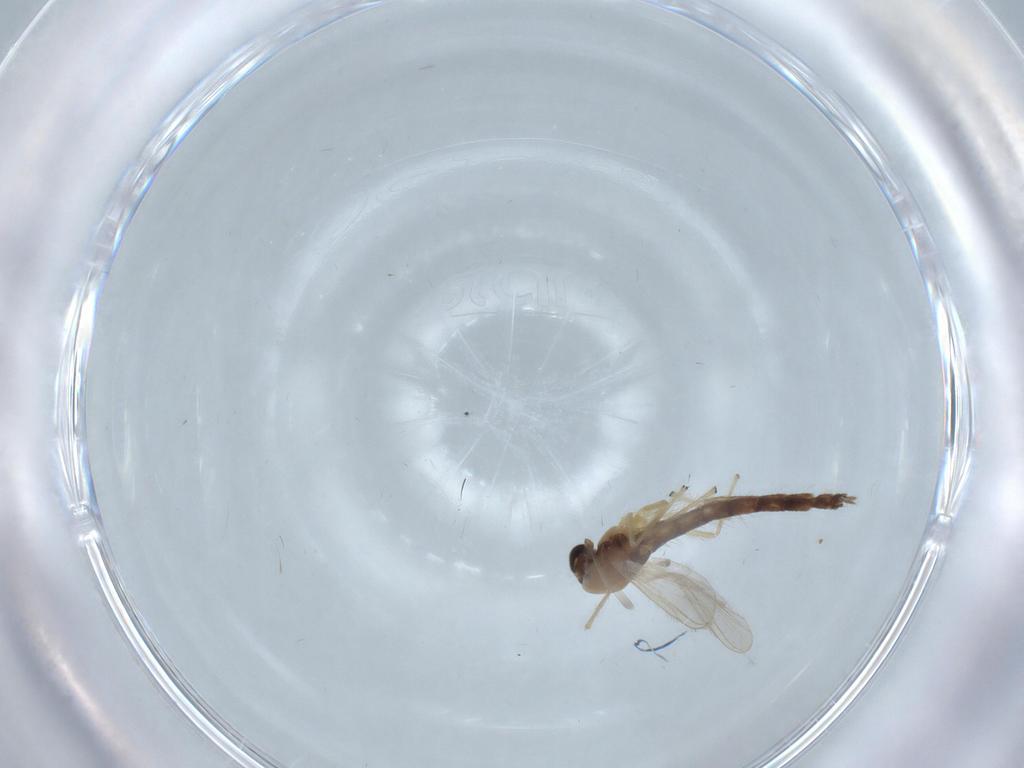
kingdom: Animalia
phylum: Arthropoda
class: Insecta
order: Diptera
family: Chironomidae
